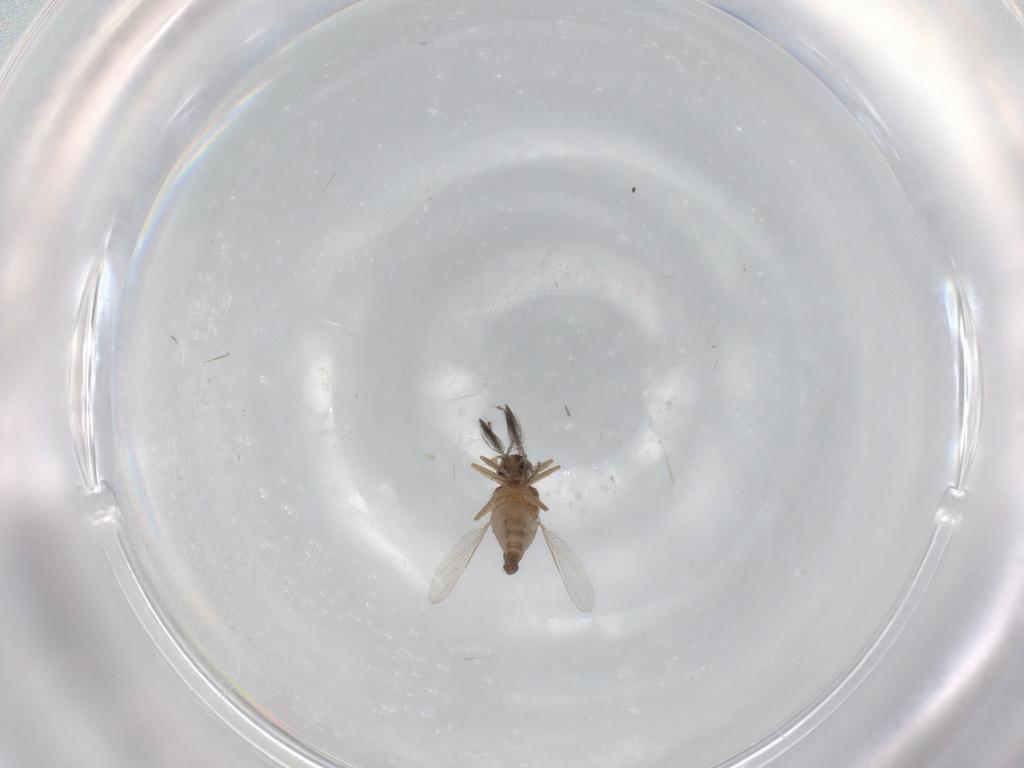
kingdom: Animalia
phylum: Arthropoda
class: Insecta
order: Diptera
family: Ceratopogonidae
